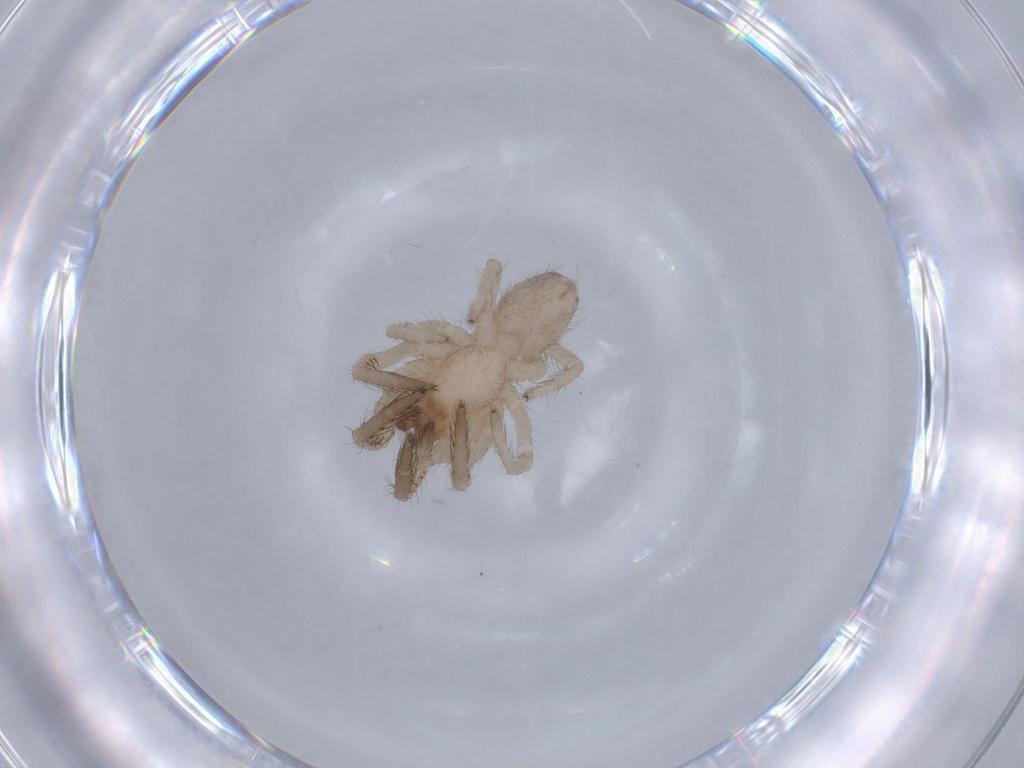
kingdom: Animalia
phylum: Arthropoda
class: Arachnida
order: Araneae
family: Segestriidae
